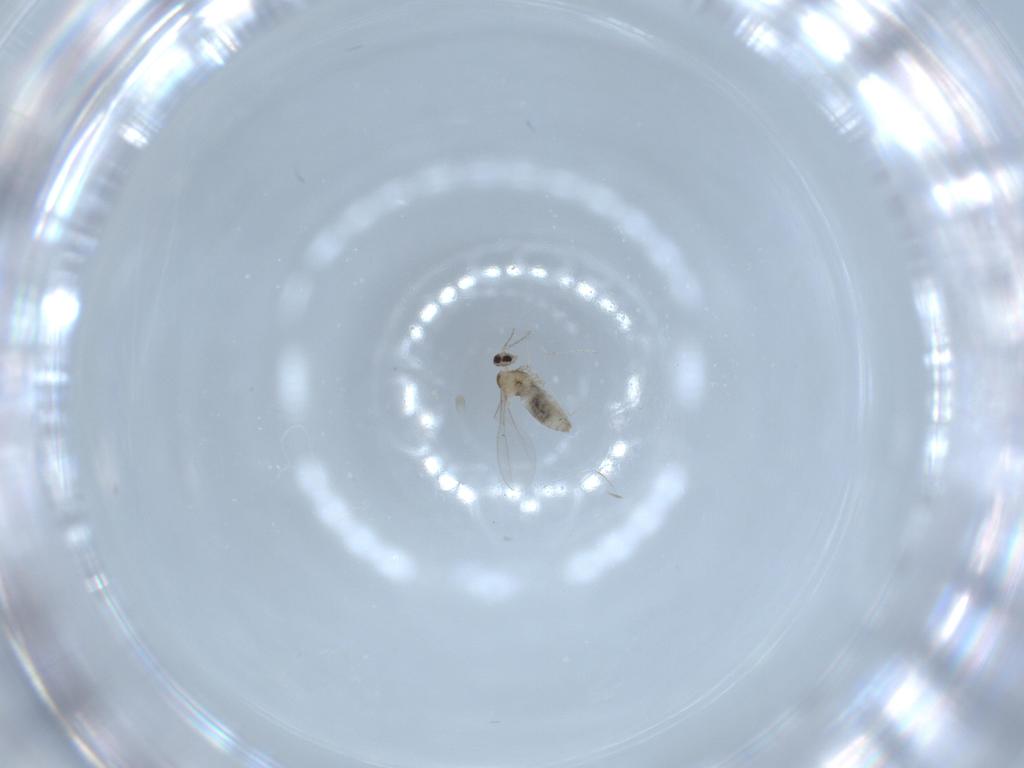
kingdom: Animalia
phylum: Arthropoda
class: Insecta
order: Diptera
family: Cecidomyiidae
